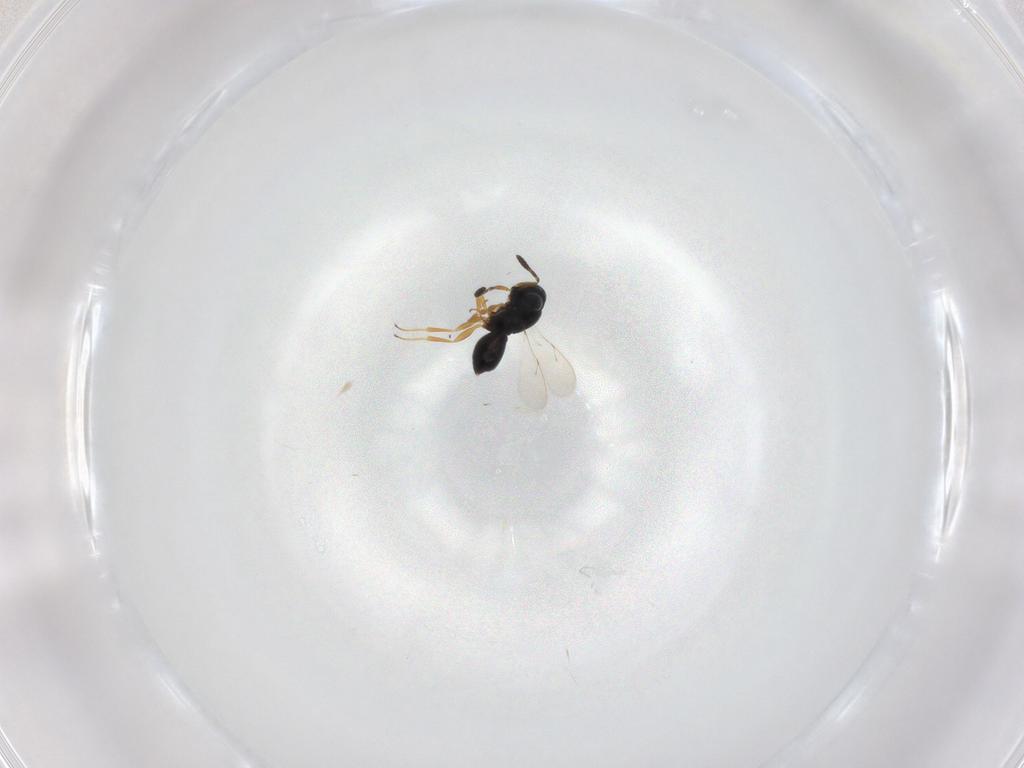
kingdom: Animalia
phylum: Arthropoda
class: Insecta
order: Hymenoptera
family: Scelionidae
